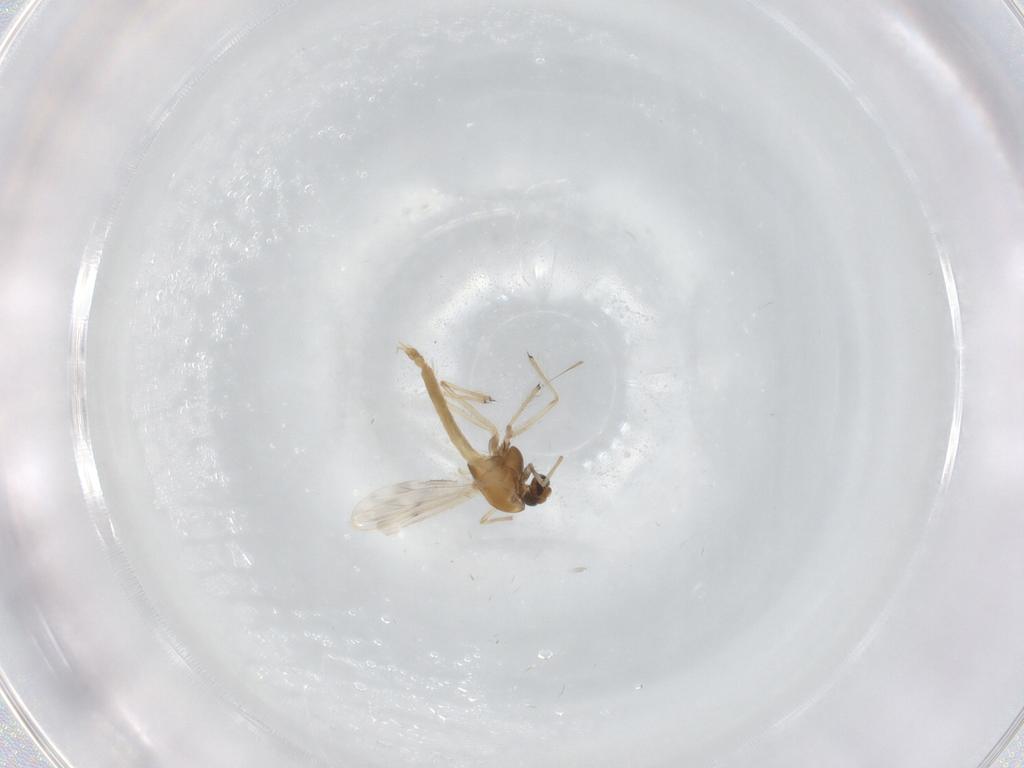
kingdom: Animalia
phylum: Arthropoda
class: Insecta
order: Diptera
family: Chironomidae
